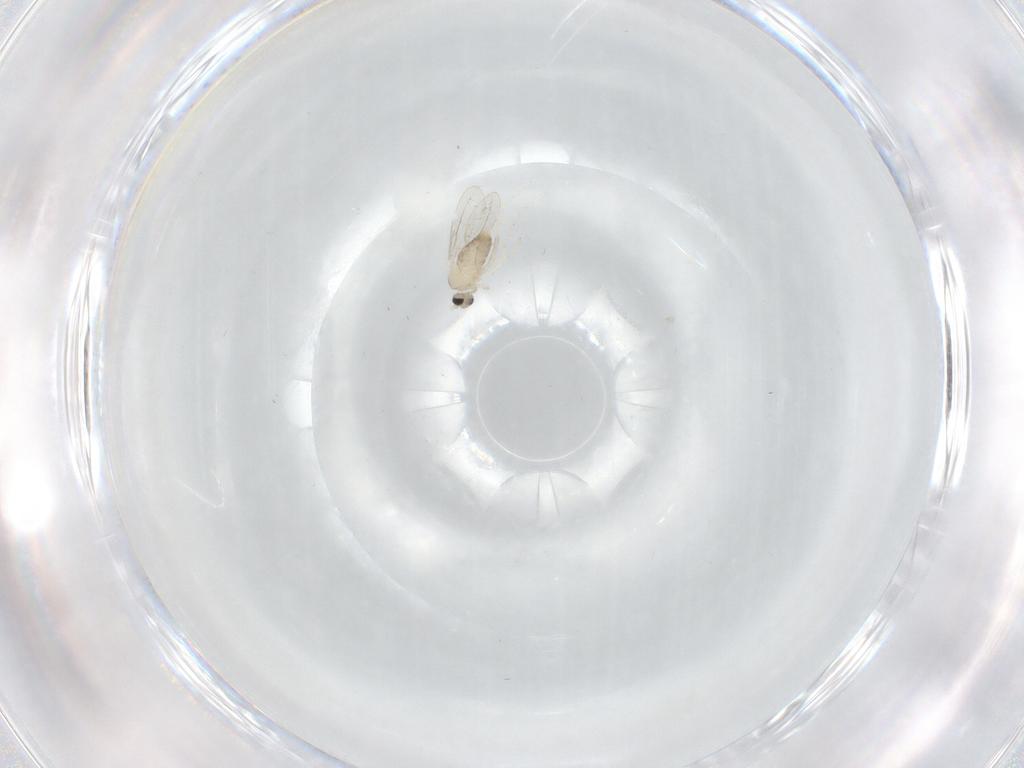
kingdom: Animalia
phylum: Arthropoda
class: Insecta
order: Diptera
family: Cecidomyiidae
